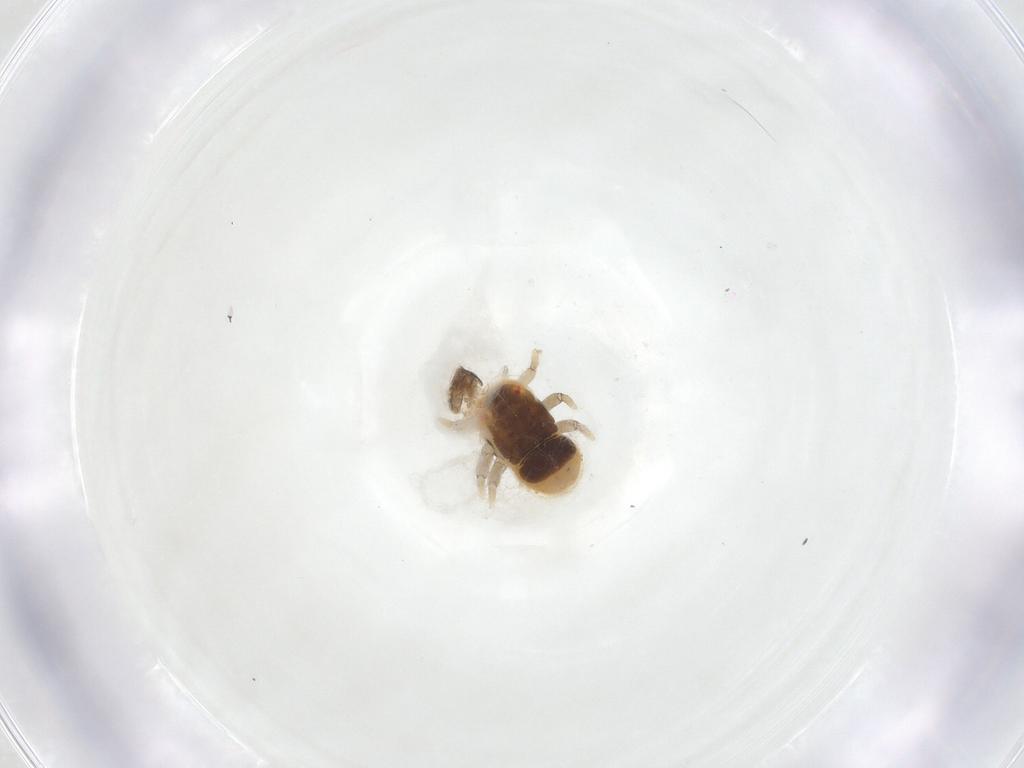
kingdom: Animalia
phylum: Arthropoda
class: Insecta
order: Hemiptera
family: Triozidae
